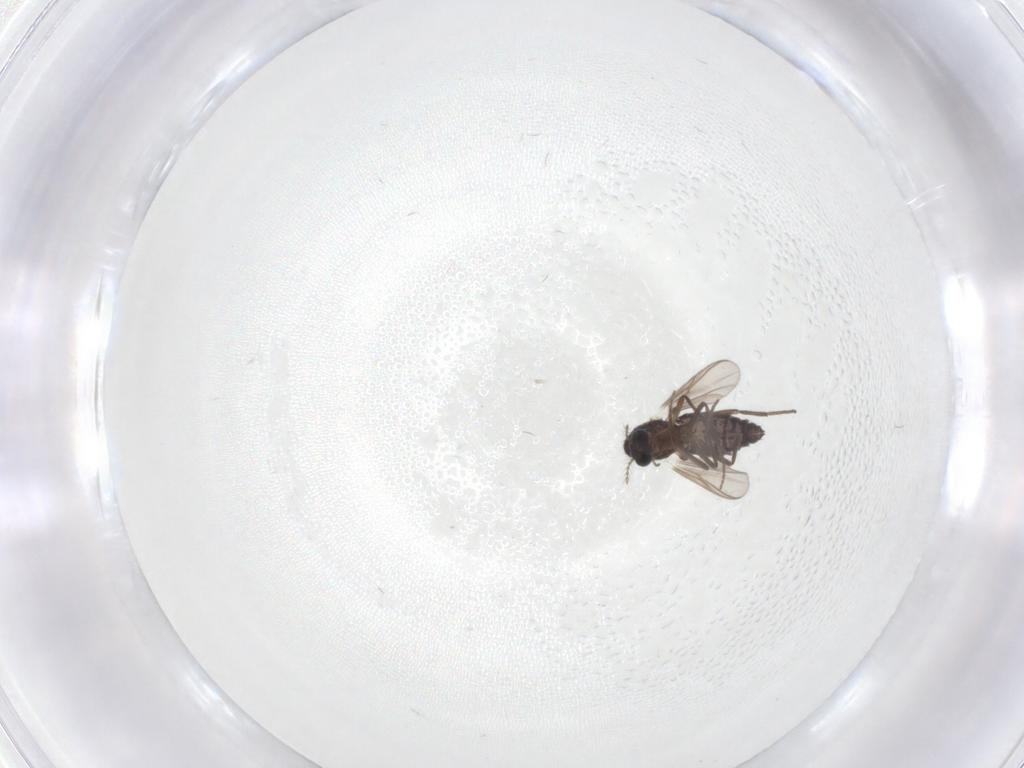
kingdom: Animalia
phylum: Arthropoda
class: Insecta
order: Diptera
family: Chironomidae
